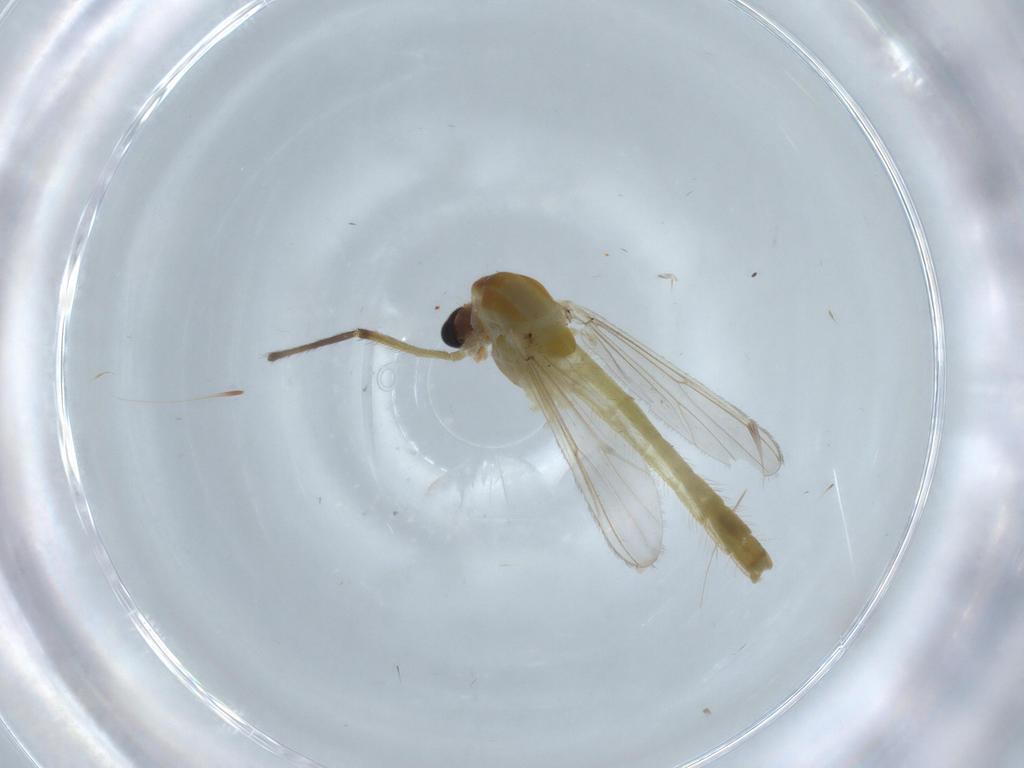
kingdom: Animalia
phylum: Arthropoda
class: Insecta
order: Diptera
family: Chironomidae
